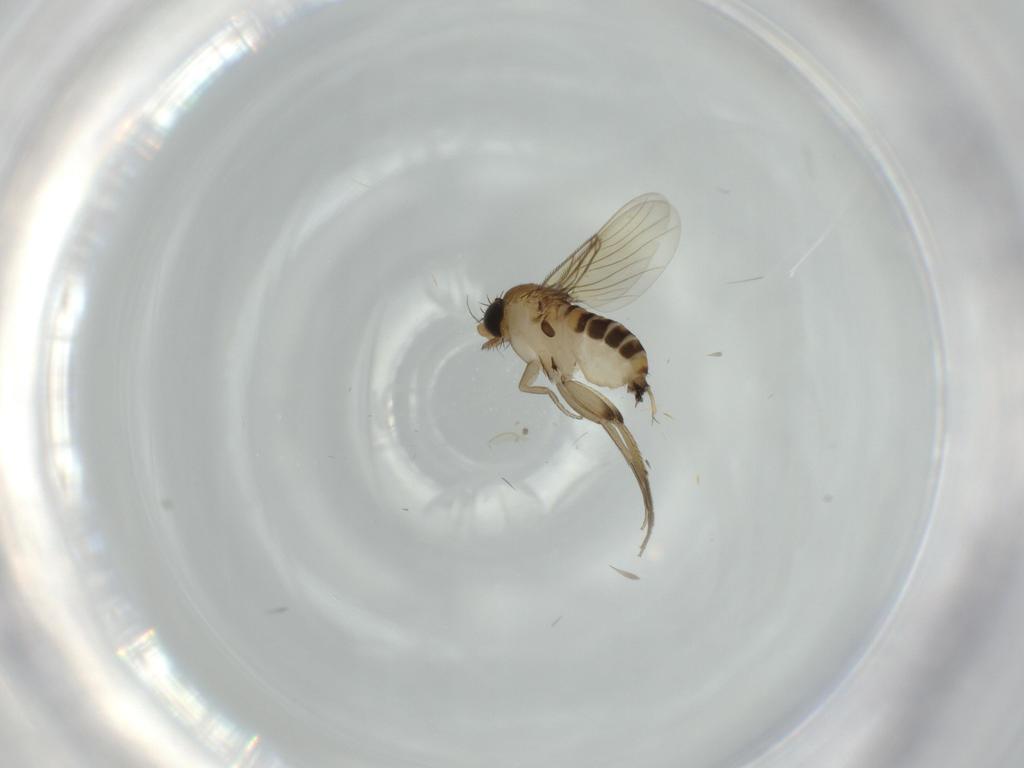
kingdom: Animalia
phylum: Arthropoda
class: Insecta
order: Diptera
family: Phoridae
